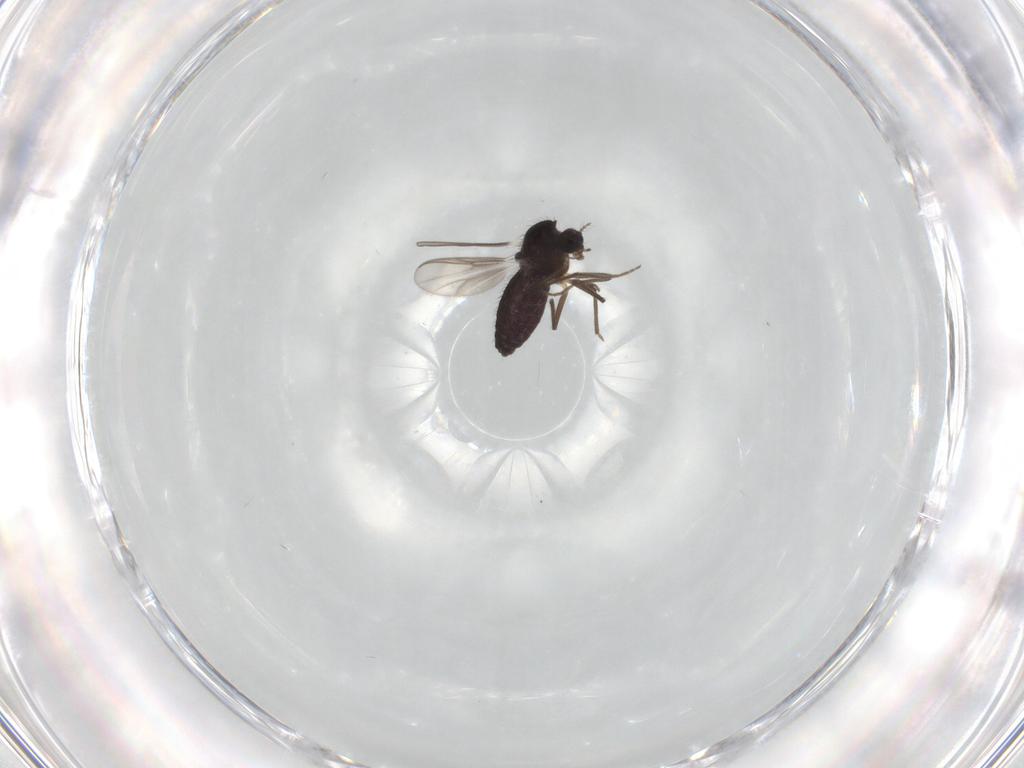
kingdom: Animalia
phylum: Arthropoda
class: Insecta
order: Diptera
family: Chironomidae
